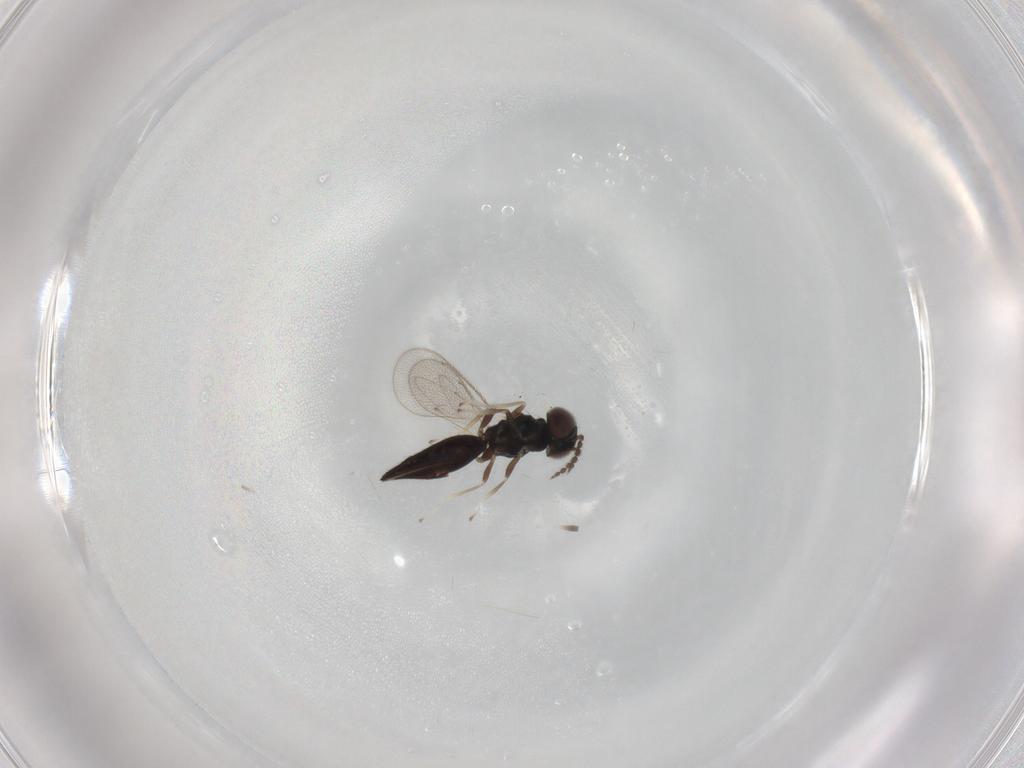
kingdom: Animalia
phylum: Arthropoda
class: Insecta
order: Hymenoptera
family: Eulophidae
